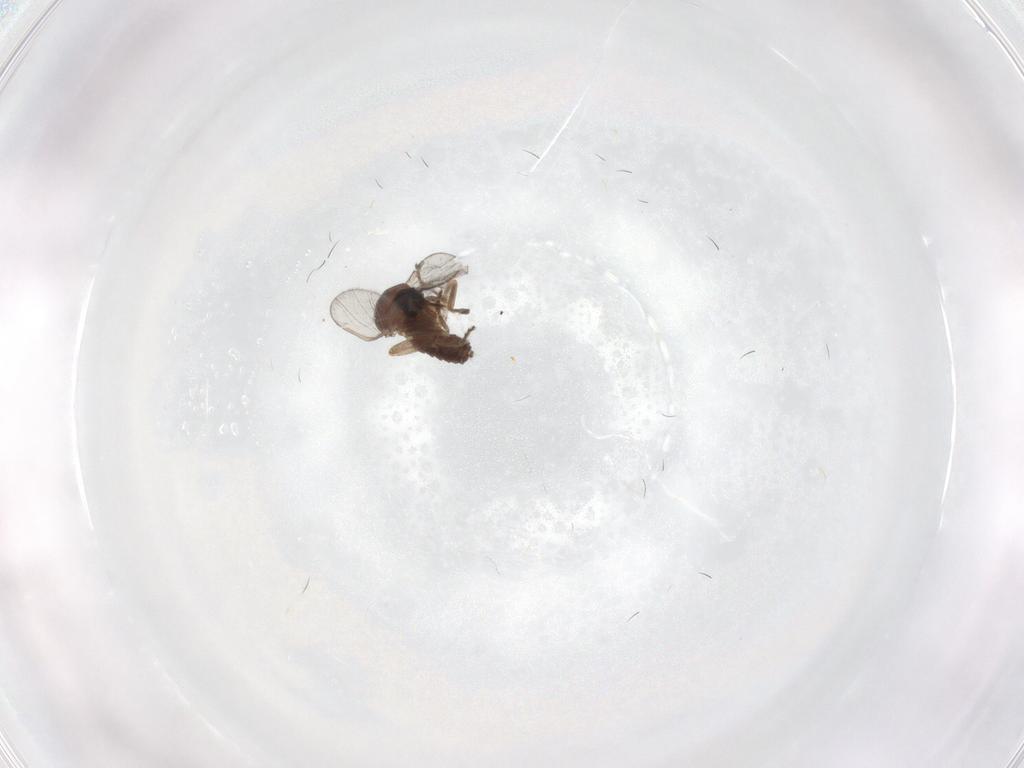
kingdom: Animalia
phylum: Arthropoda
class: Insecta
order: Diptera
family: Ceratopogonidae
